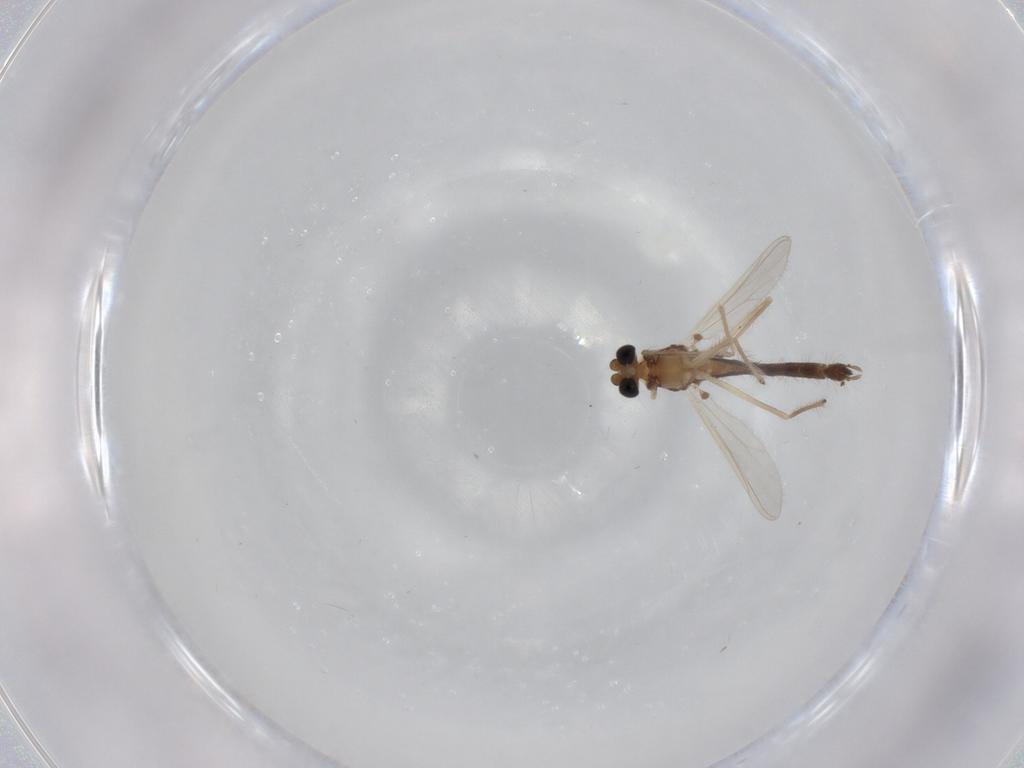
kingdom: Animalia
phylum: Arthropoda
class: Insecta
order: Diptera
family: Chironomidae
